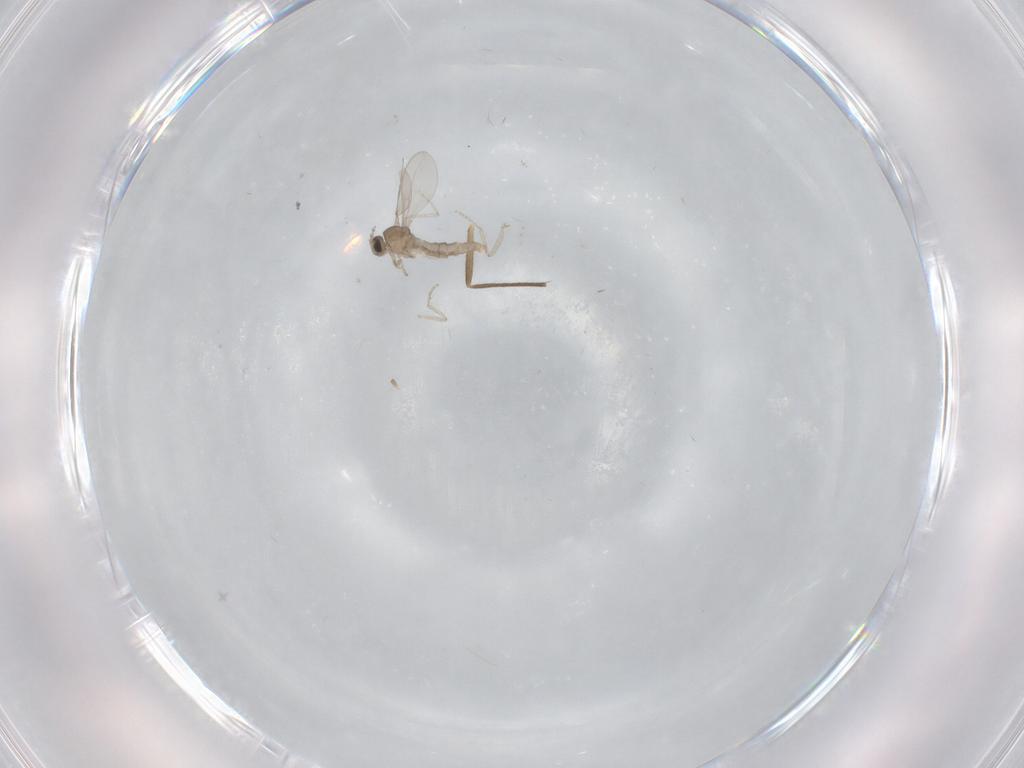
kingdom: Animalia
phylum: Arthropoda
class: Insecta
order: Diptera
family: Cecidomyiidae
